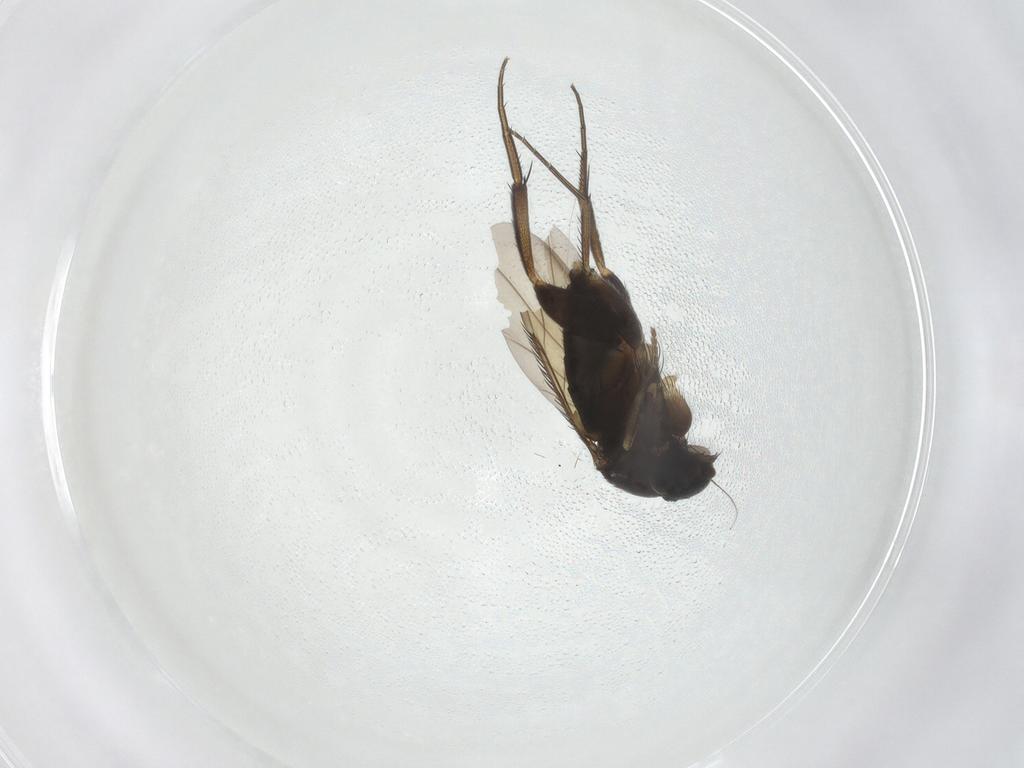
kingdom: Animalia
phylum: Arthropoda
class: Insecta
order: Diptera
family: Phoridae
